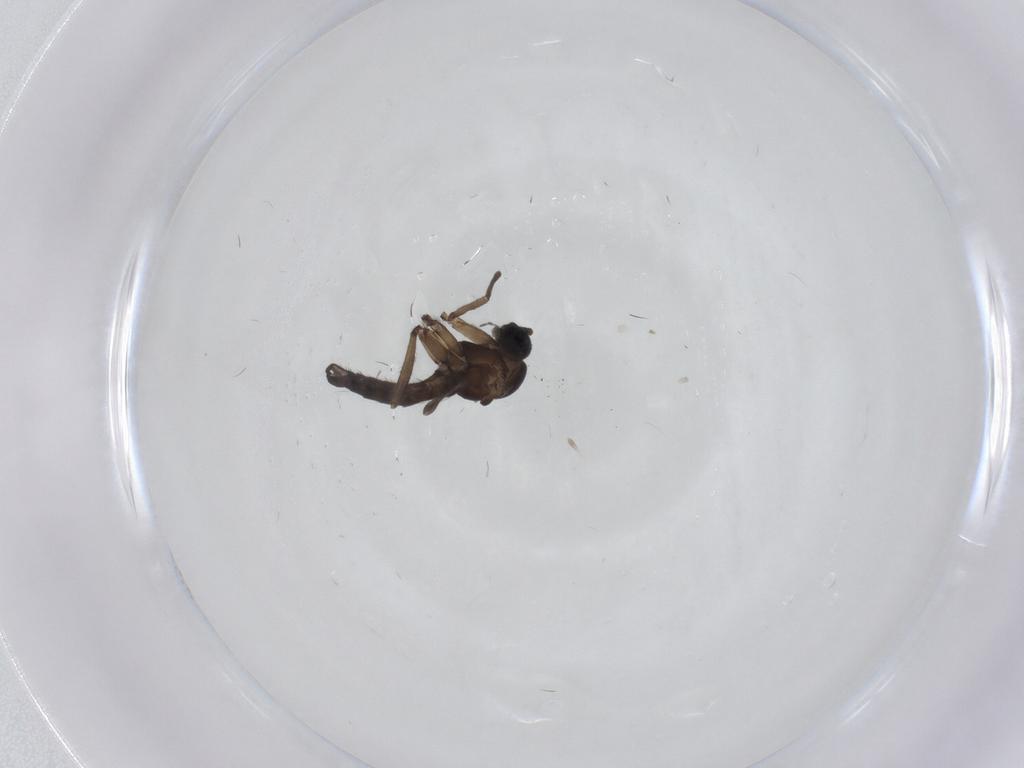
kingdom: Animalia
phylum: Arthropoda
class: Insecta
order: Diptera
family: Sciaridae
